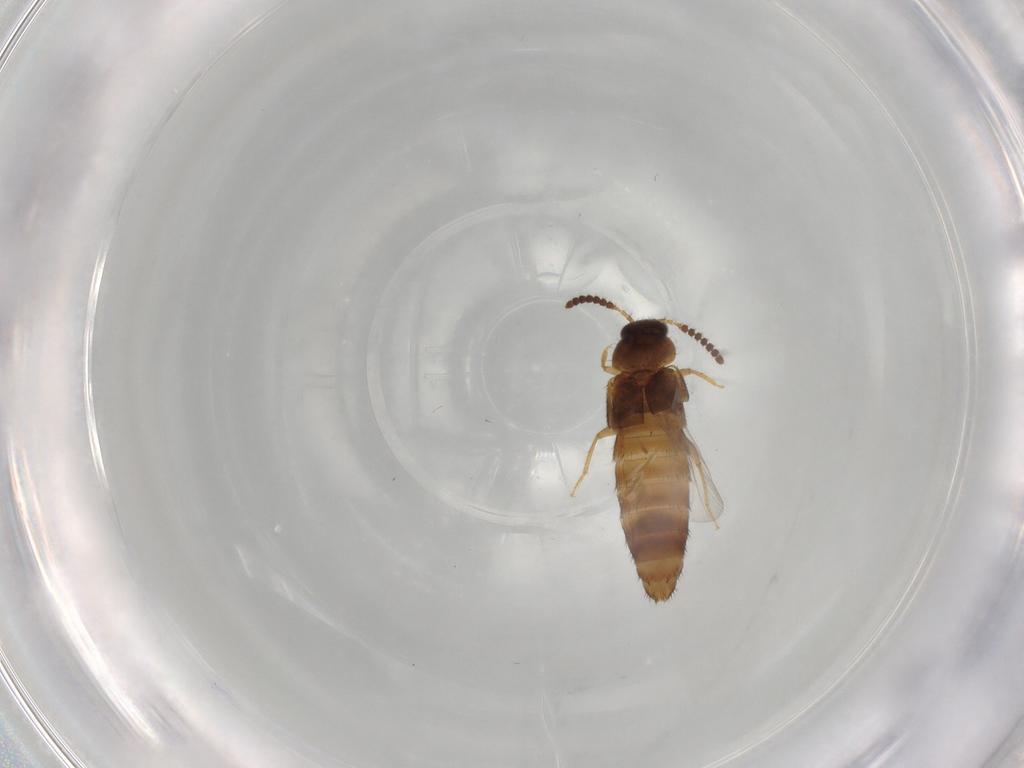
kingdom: Animalia
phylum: Arthropoda
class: Insecta
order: Coleoptera
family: Staphylinidae
